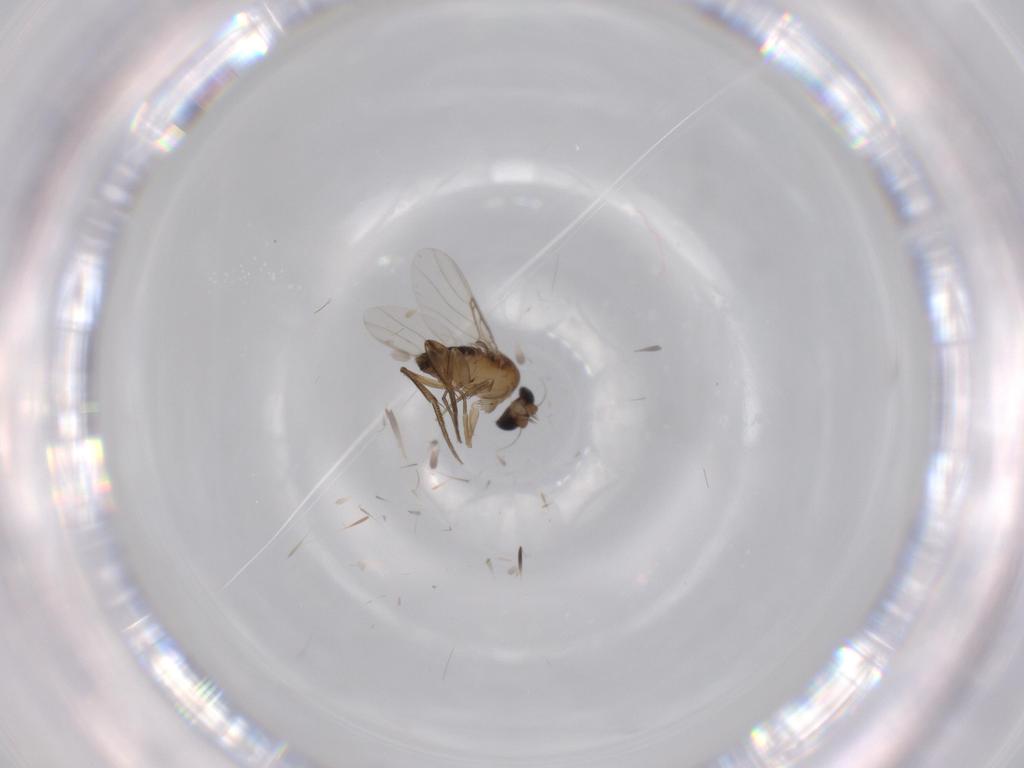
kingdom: Animalia
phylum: Arthropoda
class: Insecta
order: Diptera
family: Phoridae
